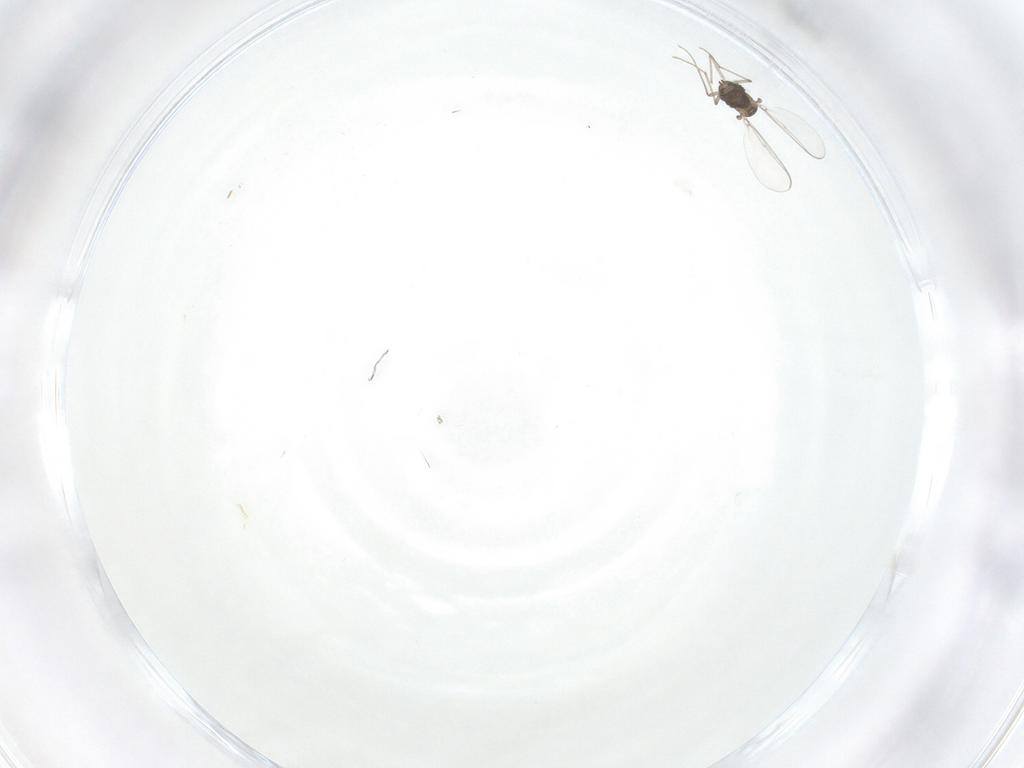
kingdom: Animalia
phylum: Arthropoda
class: Insecta
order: Diptera
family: Chironomidae
